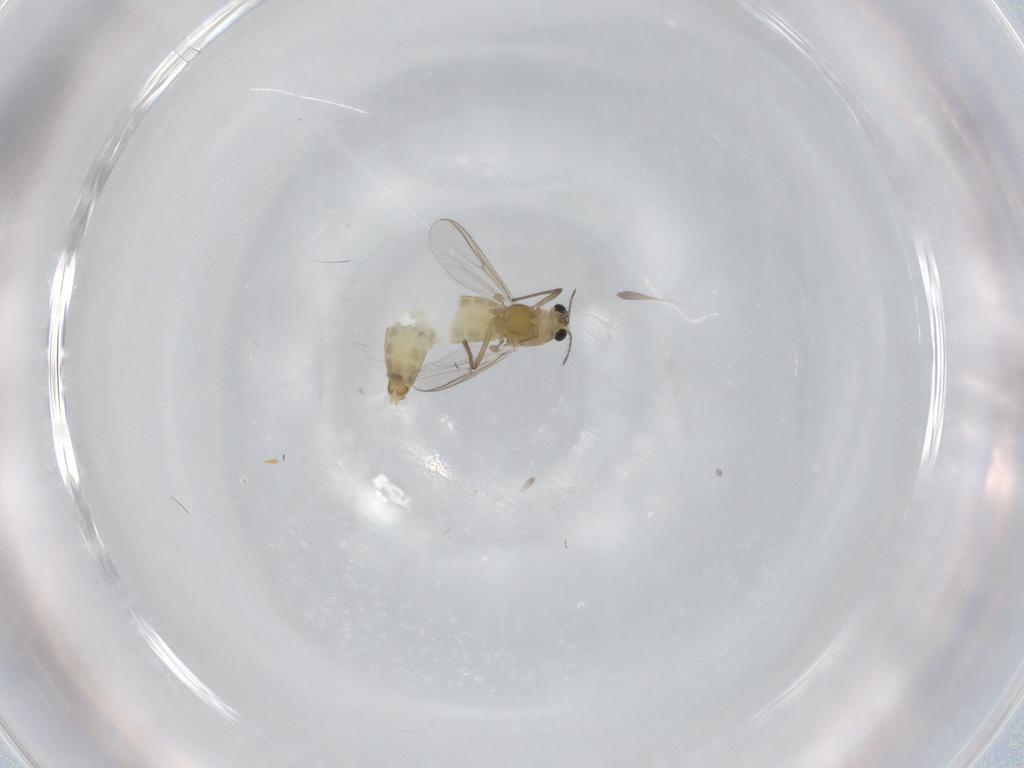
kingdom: Animalia
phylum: Arthropoda
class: Insecta
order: Diptera
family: Chironomidae
